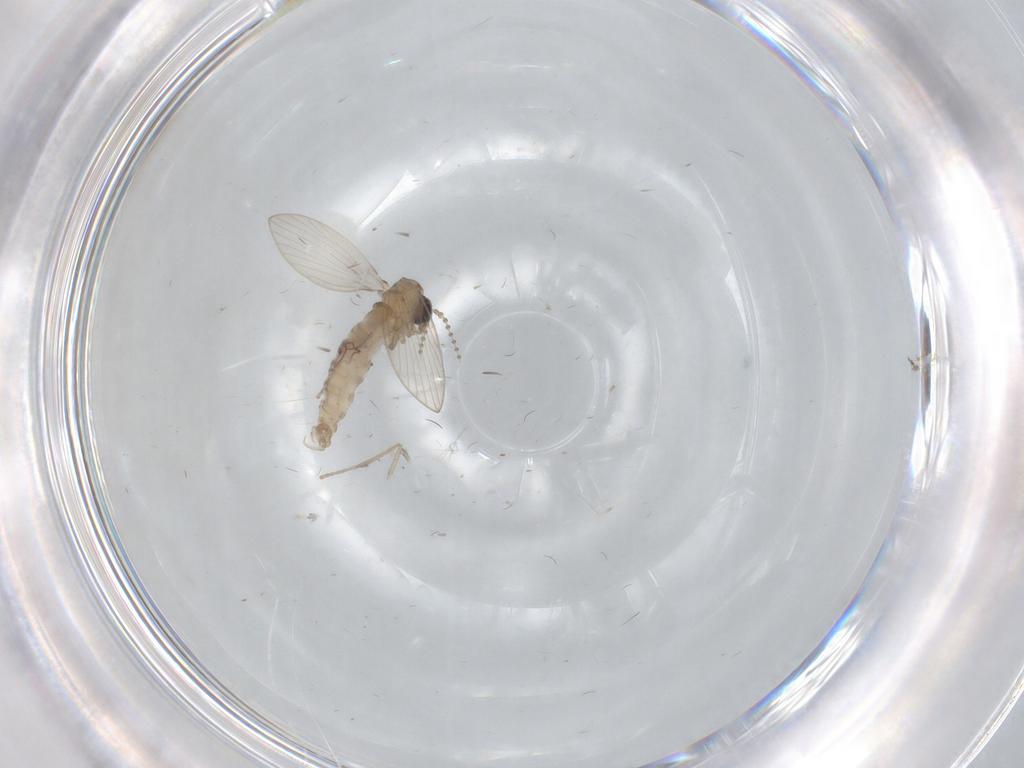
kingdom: Animalia
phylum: Arthropoda
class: Insecta
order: Diptera
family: Psychodidae
